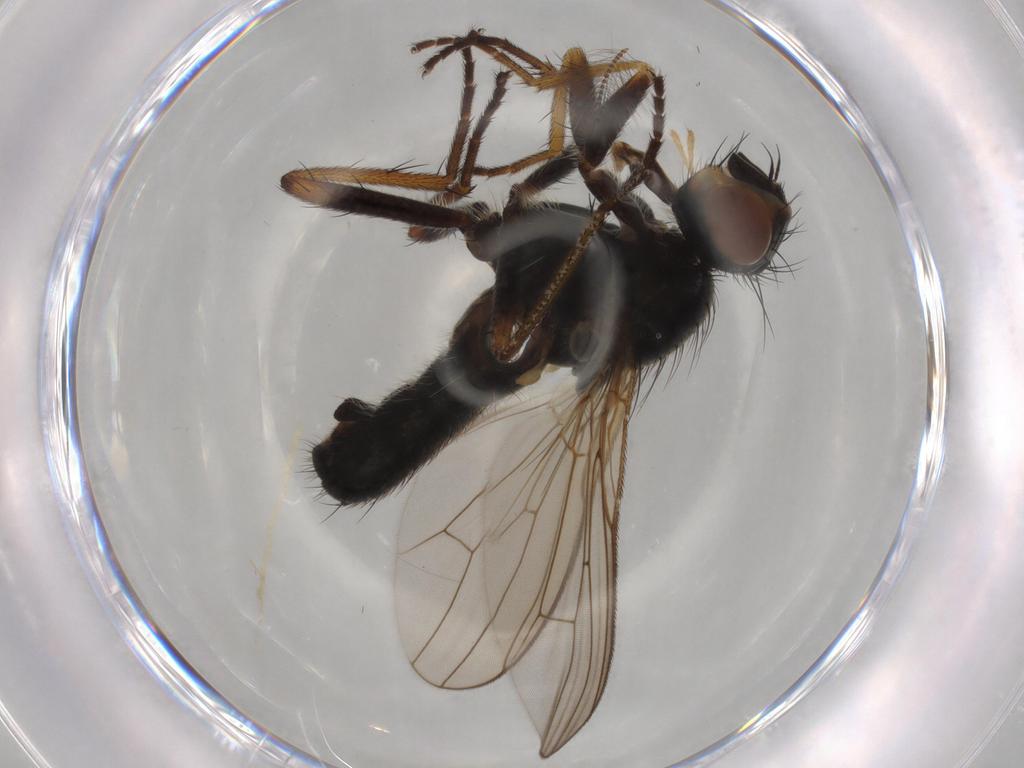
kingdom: Animalia
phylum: Arthropoda
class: Insecta
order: Diptera
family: Scathophagidae
